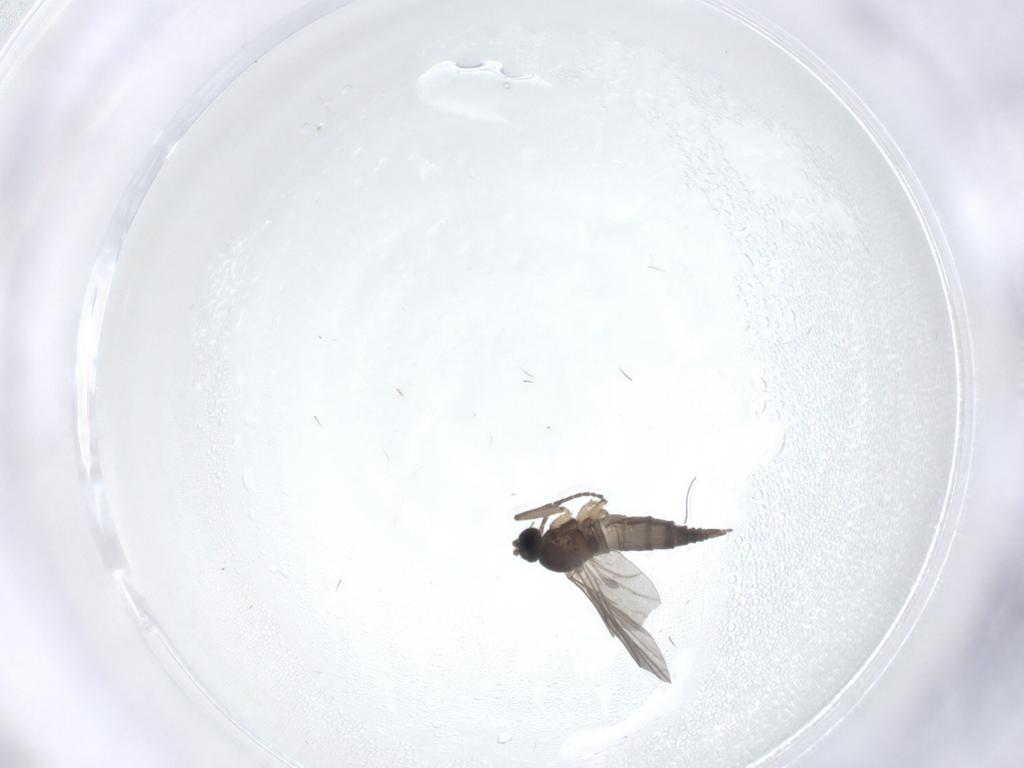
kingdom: Animalia
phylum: Arthropoda
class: Insecta
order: Diptera
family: Sciaridae
